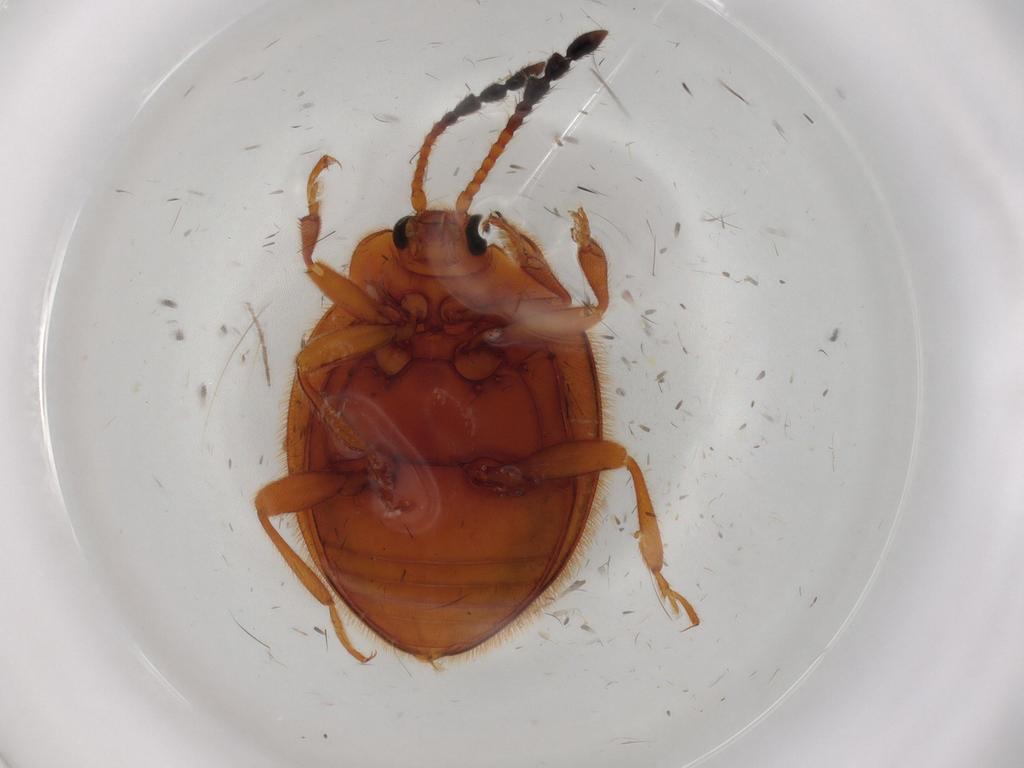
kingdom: Animalia
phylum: Arthropoda
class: Insecta
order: Coleoptera
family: Endomychidae
